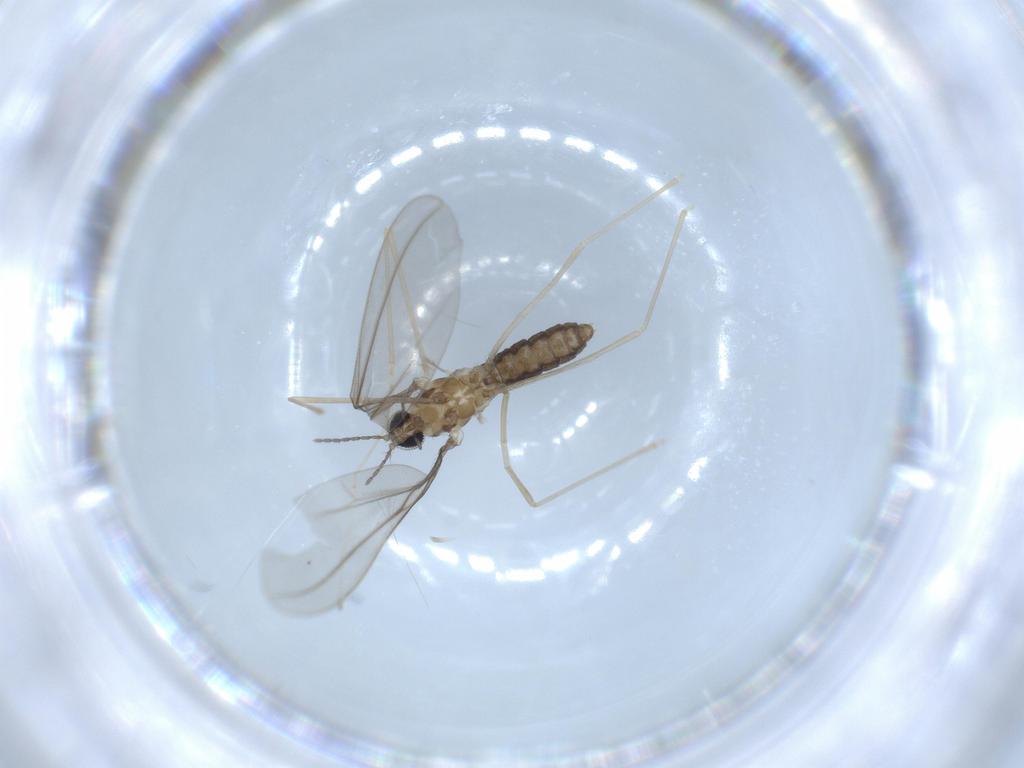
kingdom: Animalia
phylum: Arthropoda
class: Insecta
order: Diptera
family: Cecidomyiidae
